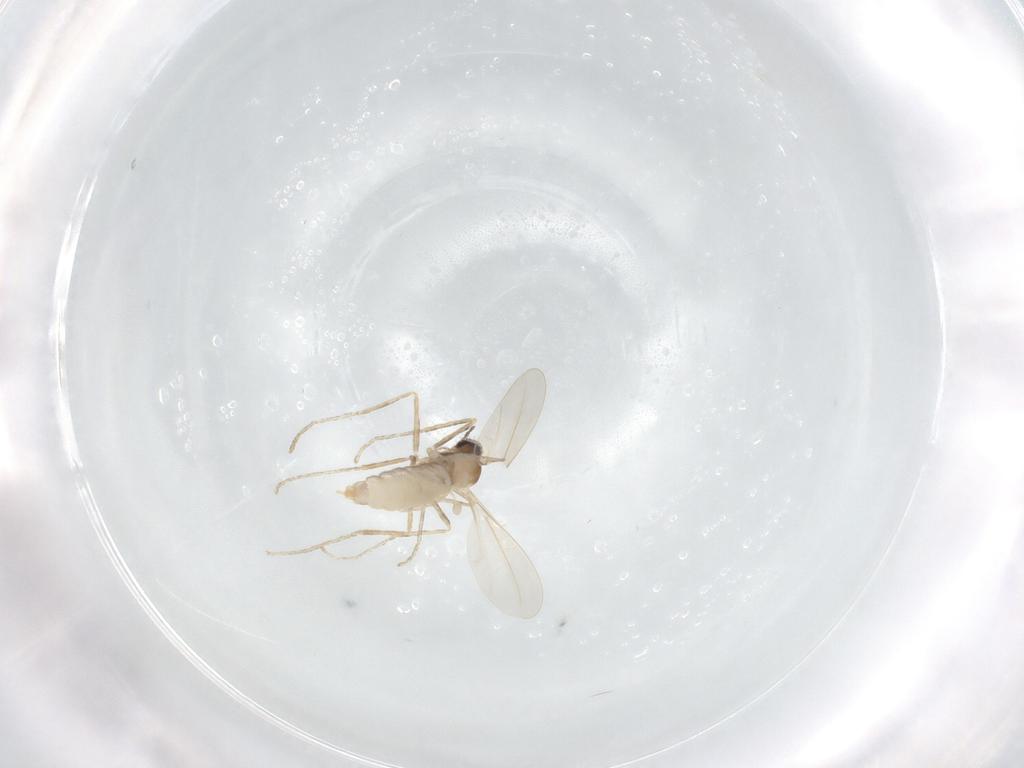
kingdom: Animalia
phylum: Arthropoda
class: Insecta
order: Diptera
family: Cecidomyiidae
